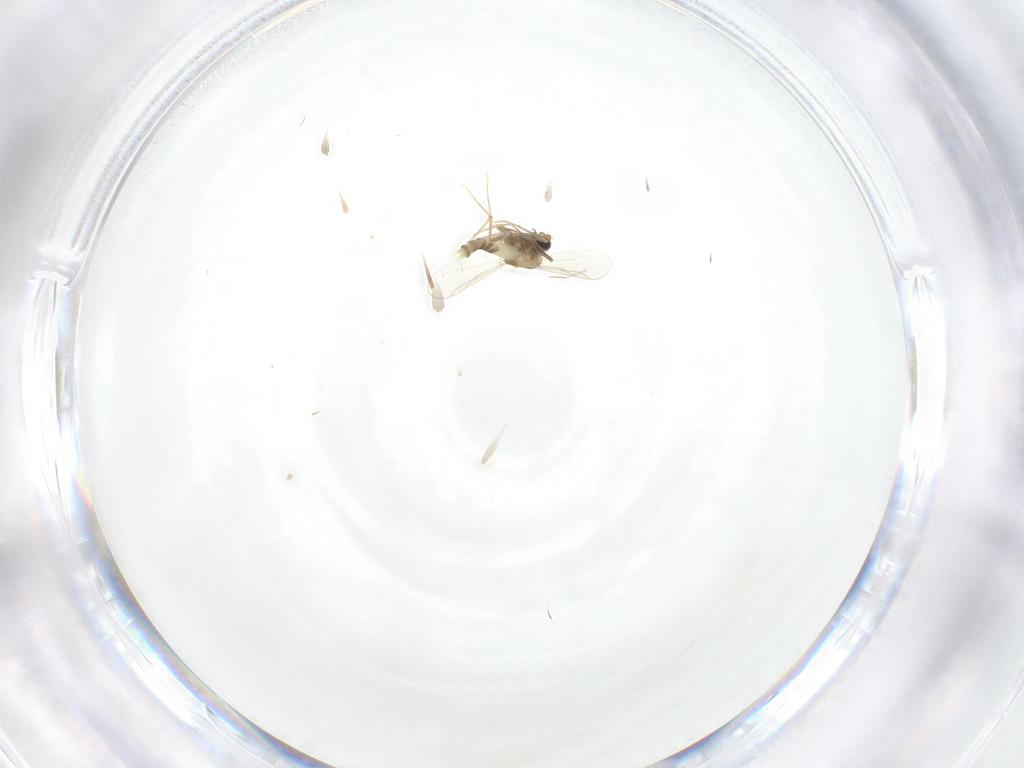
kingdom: Animalia
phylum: Arthropoda
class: Insecta
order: Diptera
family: Chironomidae
